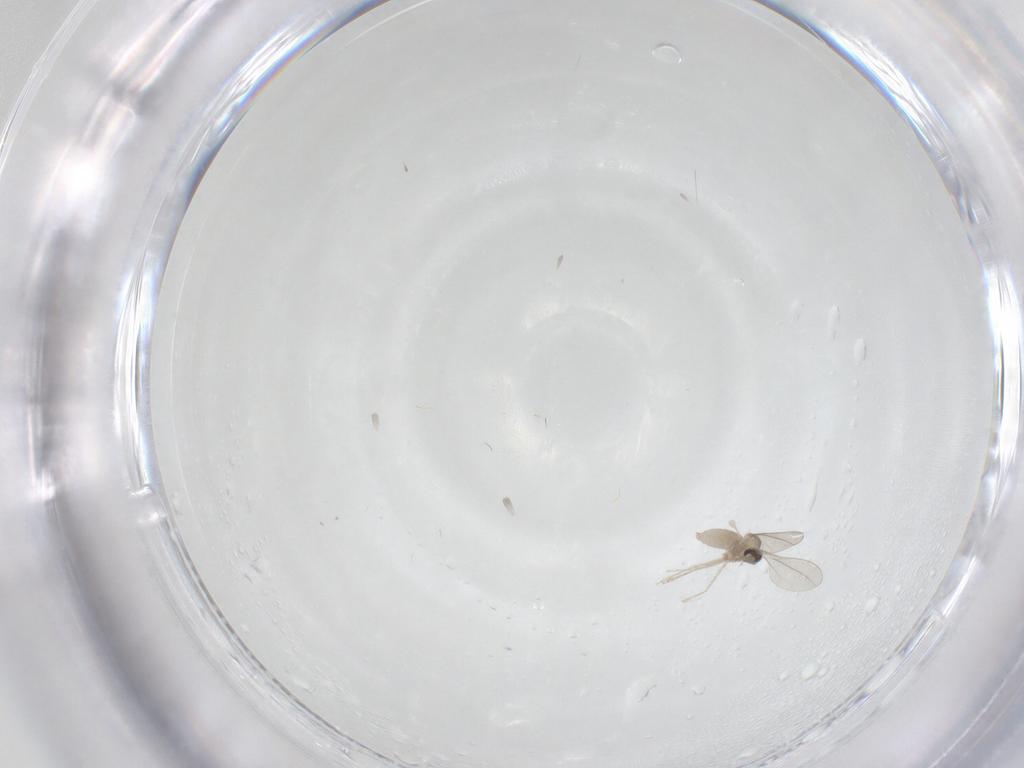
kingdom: Animalia
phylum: Arthropoda
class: Insecta
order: Diptera
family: Cecidomyiidae
